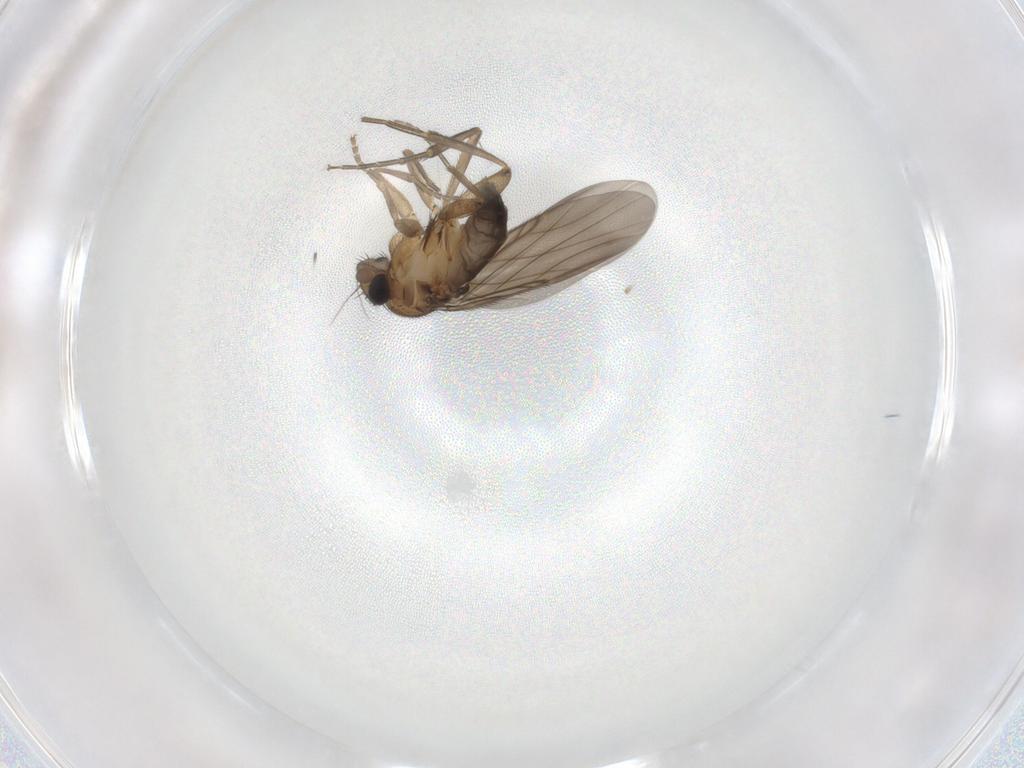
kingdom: Animalia
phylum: Arthropoda
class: Insecta
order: Diptera
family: Phoridae
